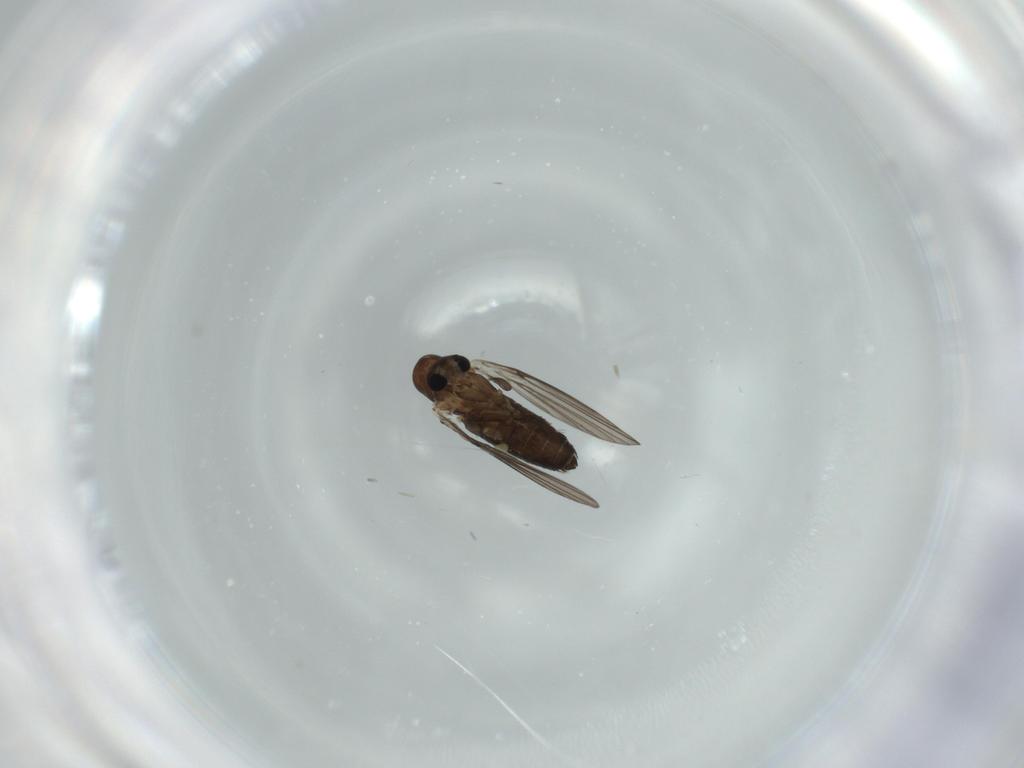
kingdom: Animalia
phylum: Arthropoda
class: Insecta
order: Diptera
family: Psychodidae
